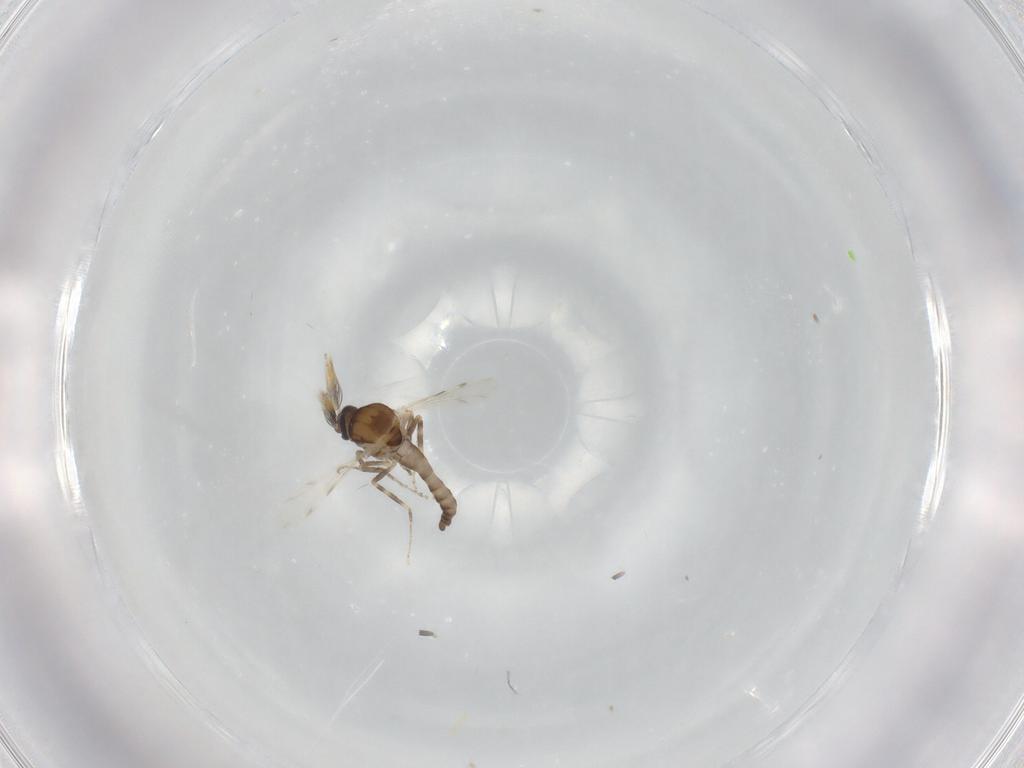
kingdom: Animalia
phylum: Arthropoda
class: Insecta
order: Diptera
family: Ceratopogonidae
